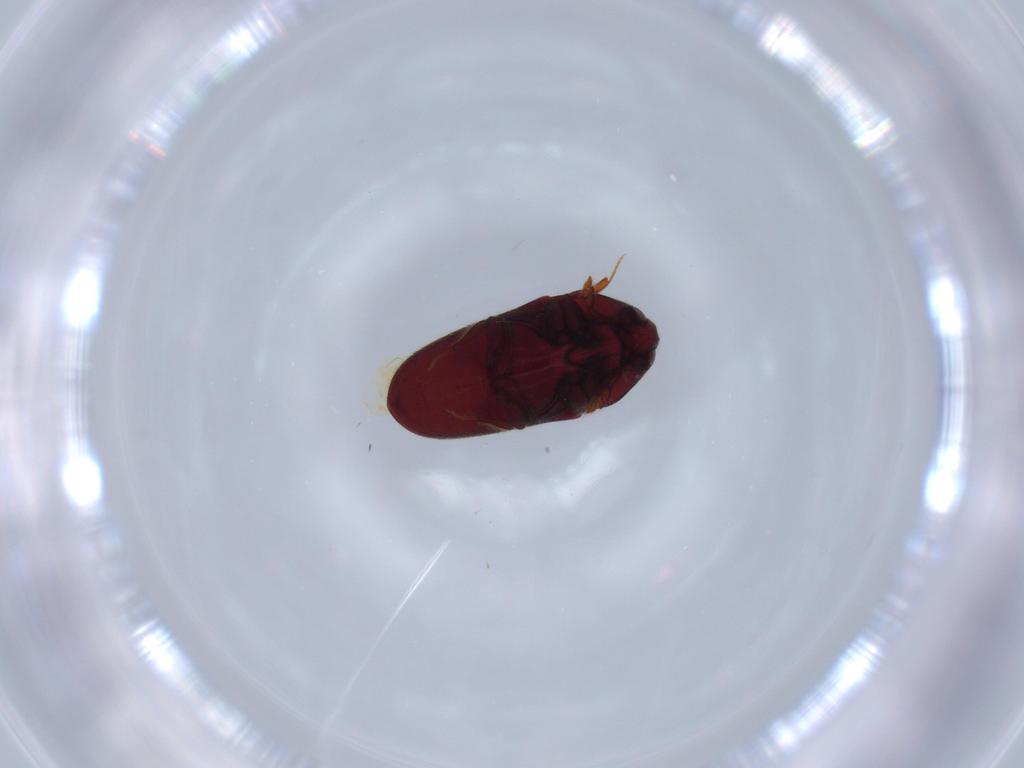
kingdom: Animalia
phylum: Arthropoda
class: Insecta
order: Coleoptera
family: Throscidae
